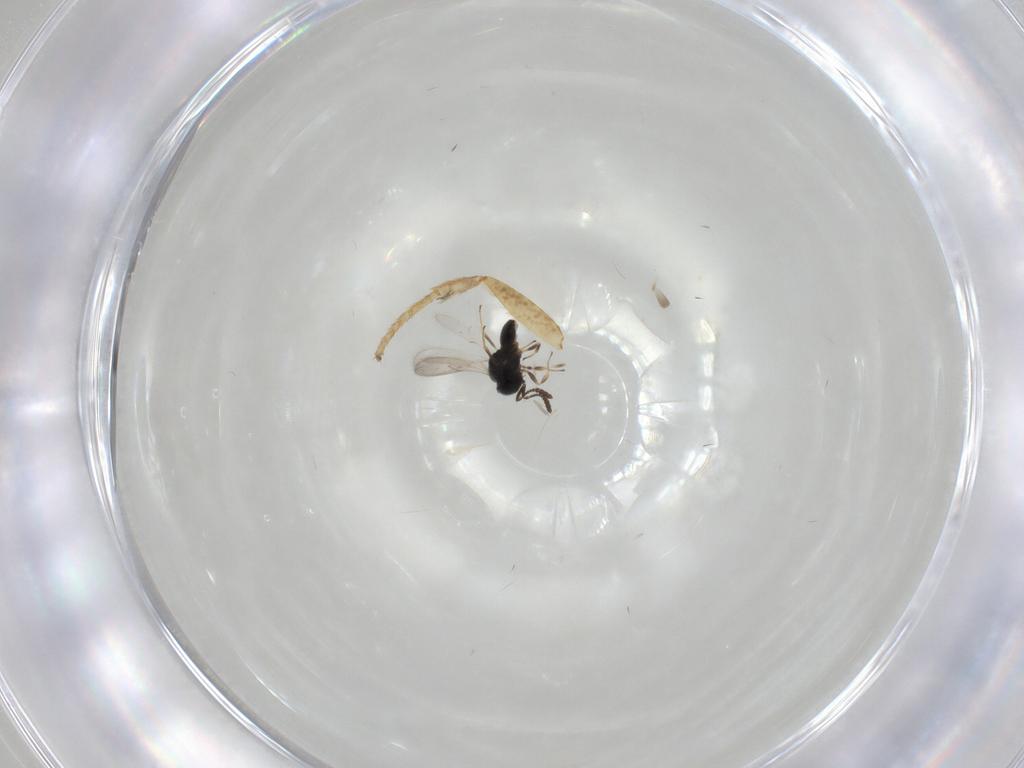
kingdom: Animalia
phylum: Arthropoda
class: Insecta
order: Hymenoptera
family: Scelionidae
